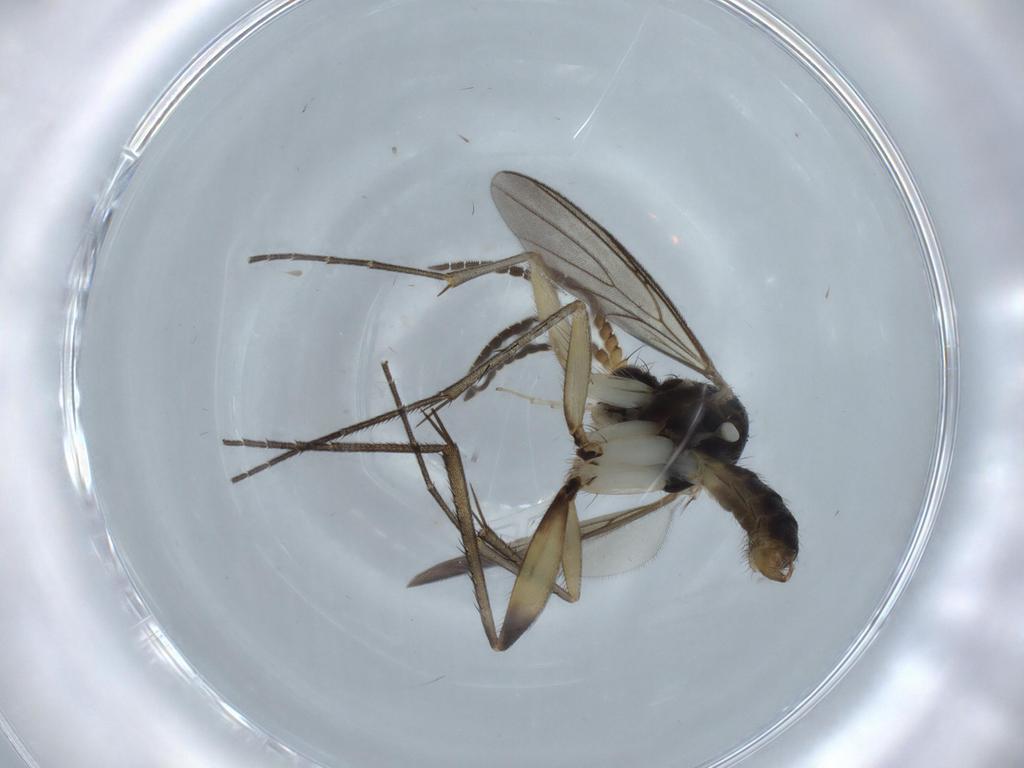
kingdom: Animalia
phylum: Arthropoda
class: Insecta
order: Diptera
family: Mycetophilidae
